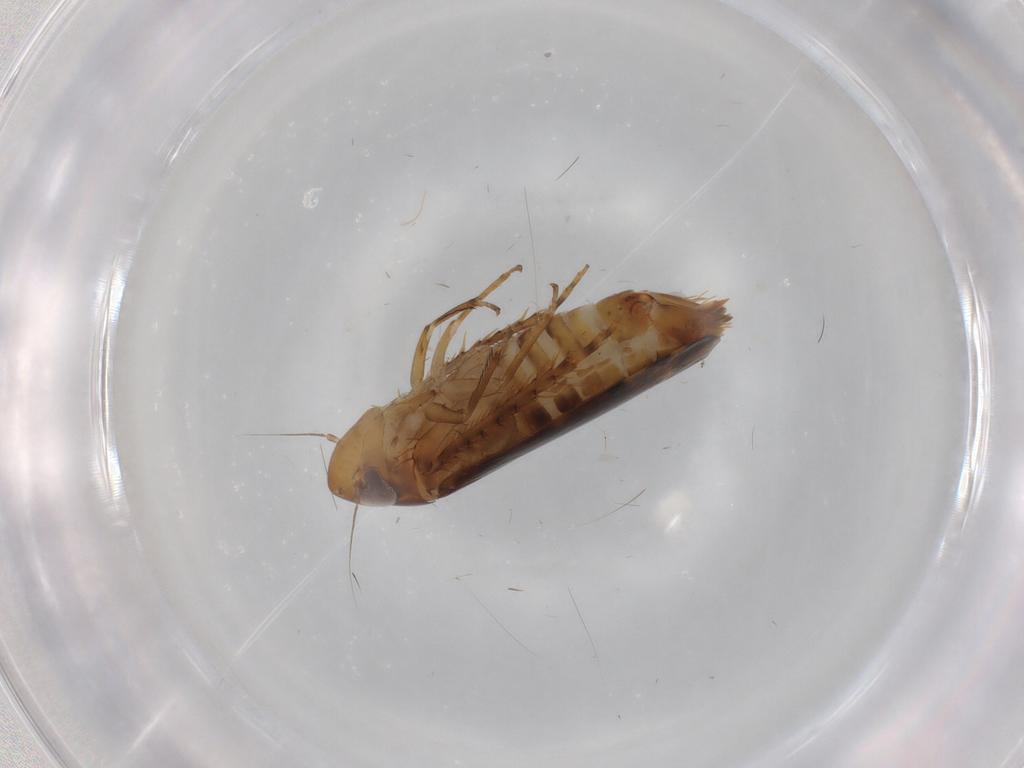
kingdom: Animalia
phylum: Arthropoda
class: Insecta
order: Hemiptera
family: Cicadellidae
